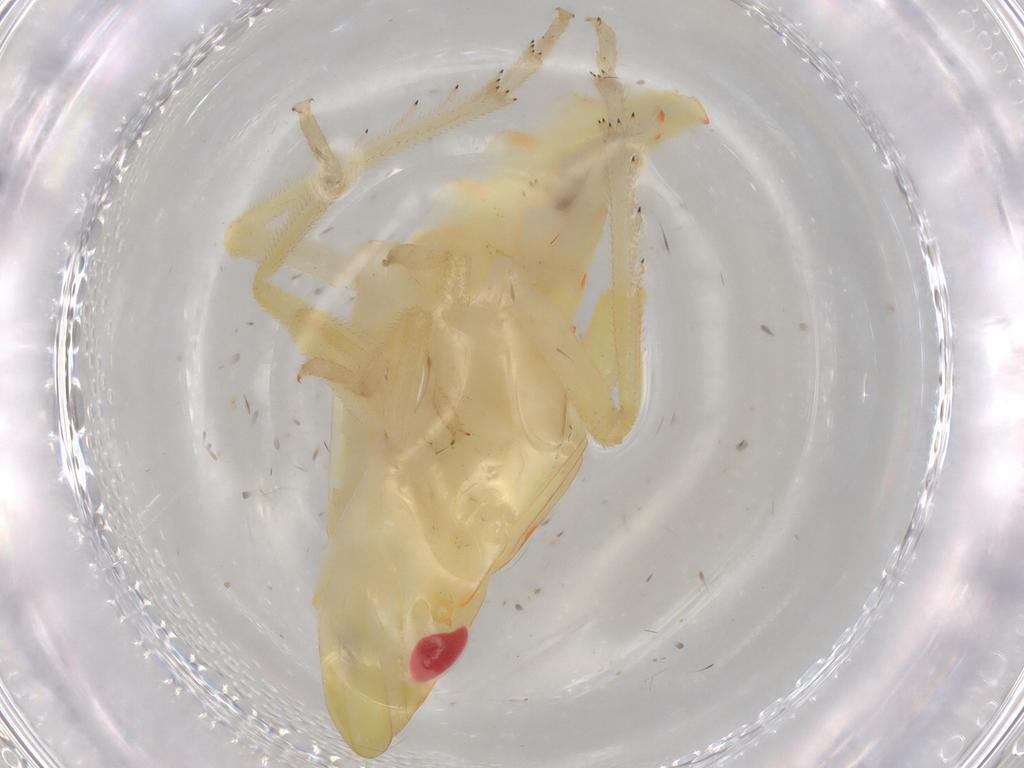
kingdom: Animalia
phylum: Arthropoda
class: Insecta
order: Hemiptera
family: Tropiduchidae
